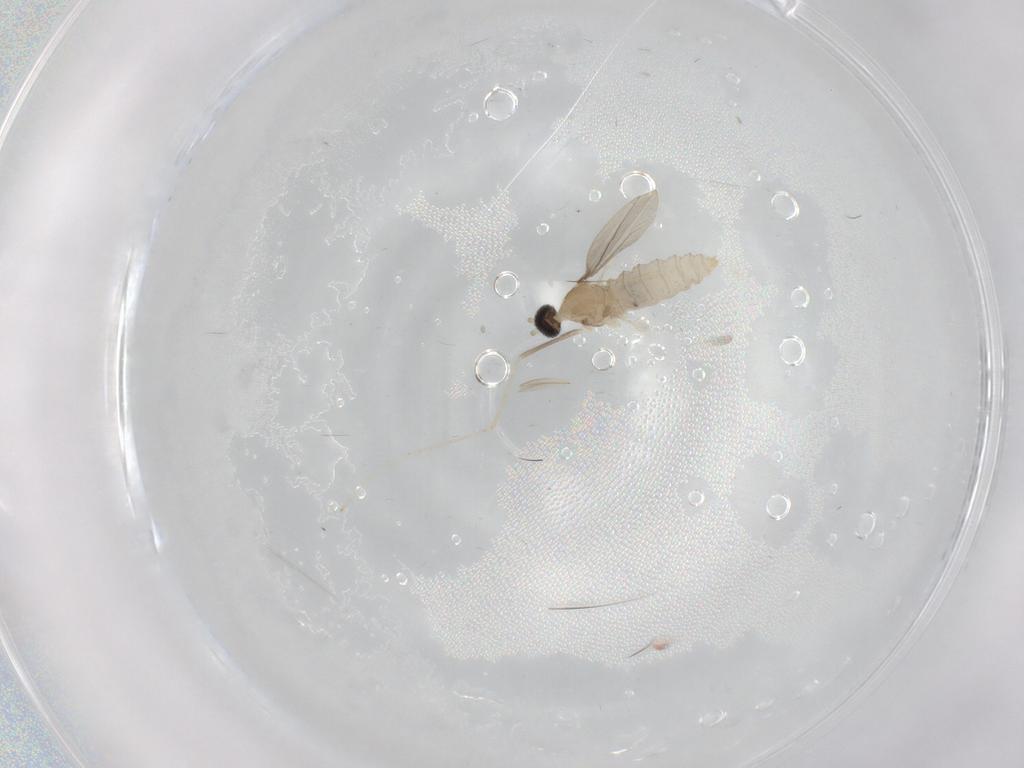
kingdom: Animalia
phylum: Arthropoda
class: Insecta
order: Diptera
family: Cecidomyiidae
